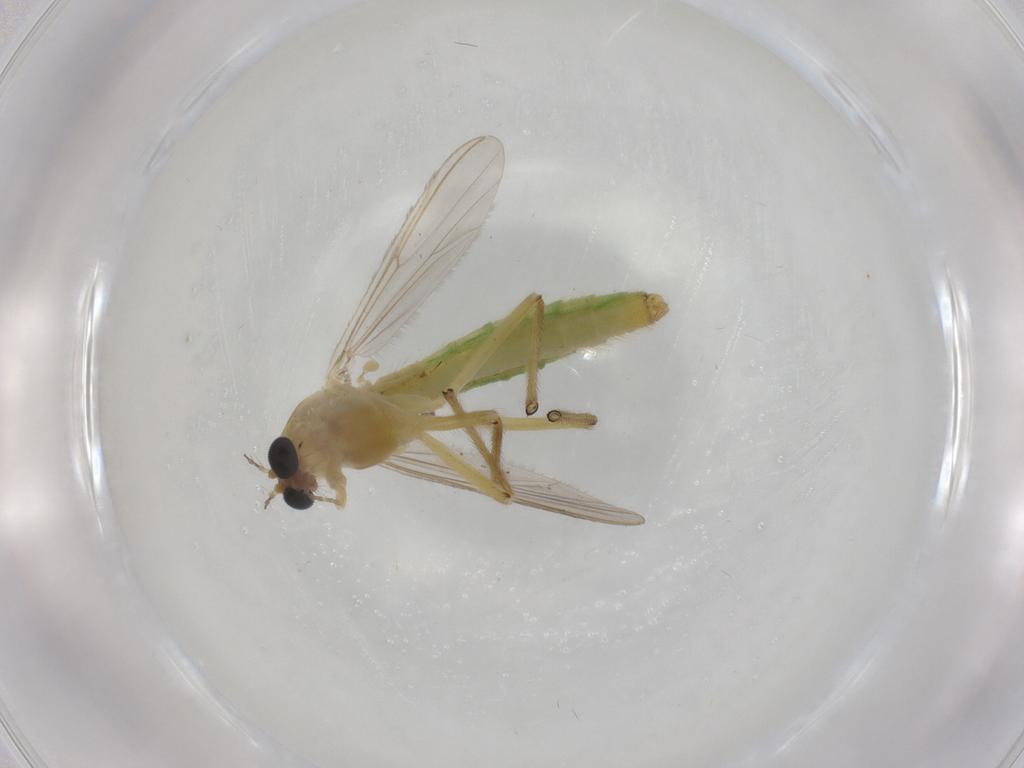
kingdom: Animalia
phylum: Arthropoda
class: Insecta
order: Diptera
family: Chironomidae
